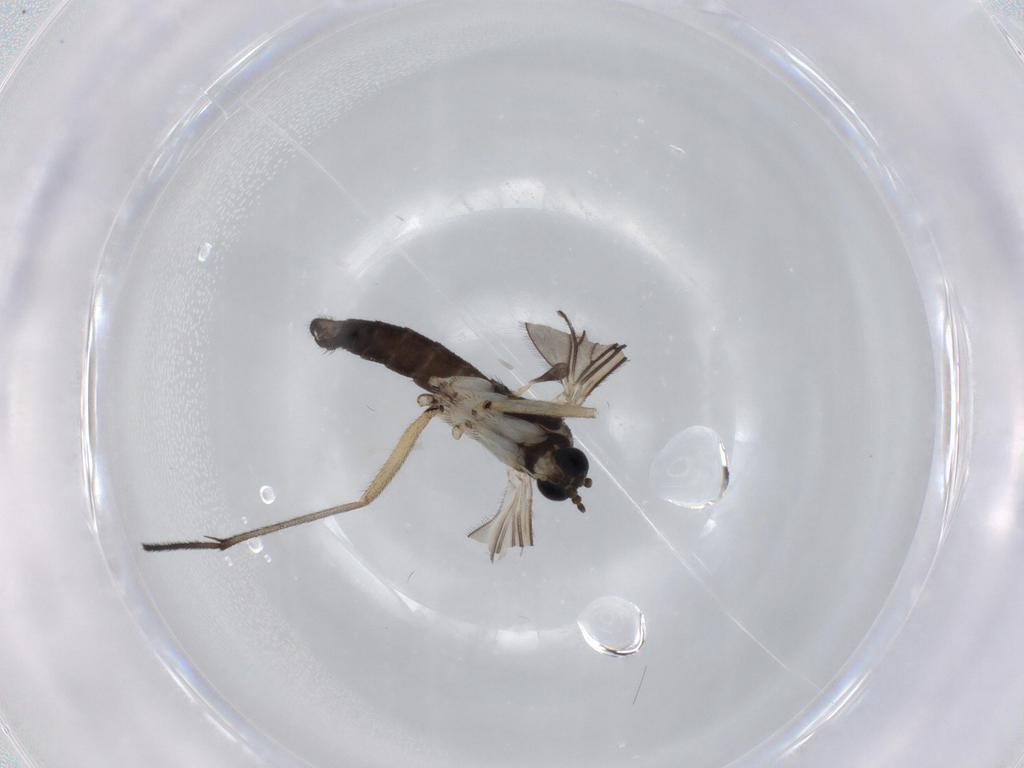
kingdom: Animalia
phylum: Arthropoda
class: Insecta
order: Diptera
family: Sciaridae
